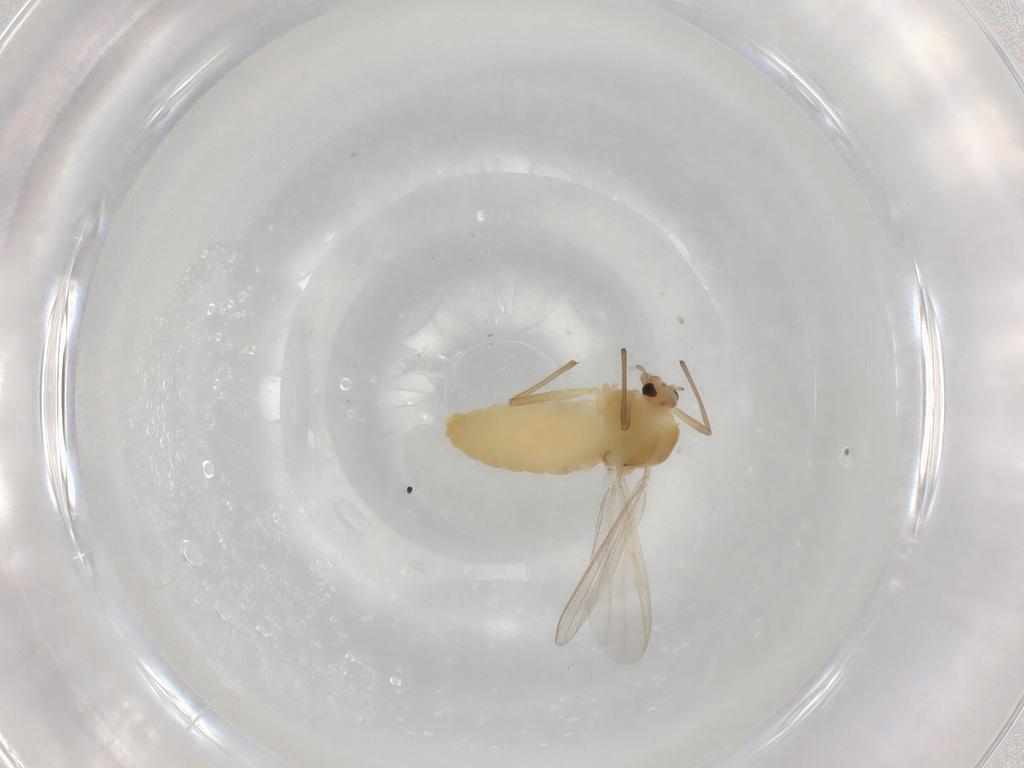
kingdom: Animalia
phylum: Arthropoda
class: Insecta
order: Diptera
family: Chironomidae
